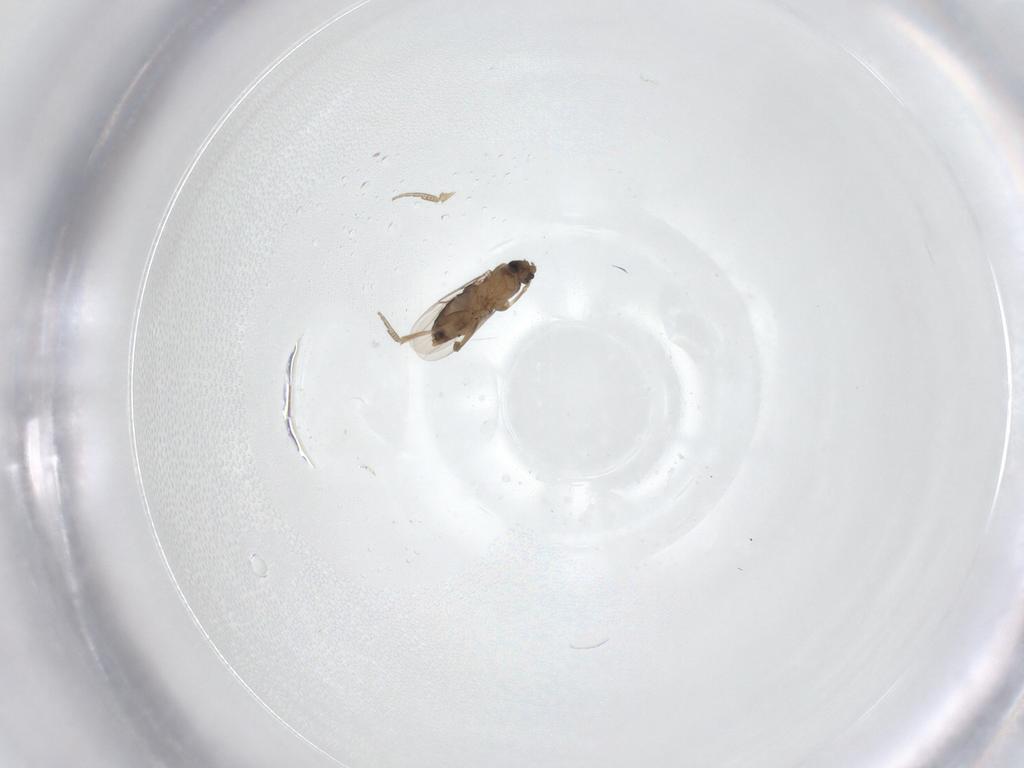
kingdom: Animalia
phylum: Arthropoda
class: Insecta
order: Diptera
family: Phoridae
